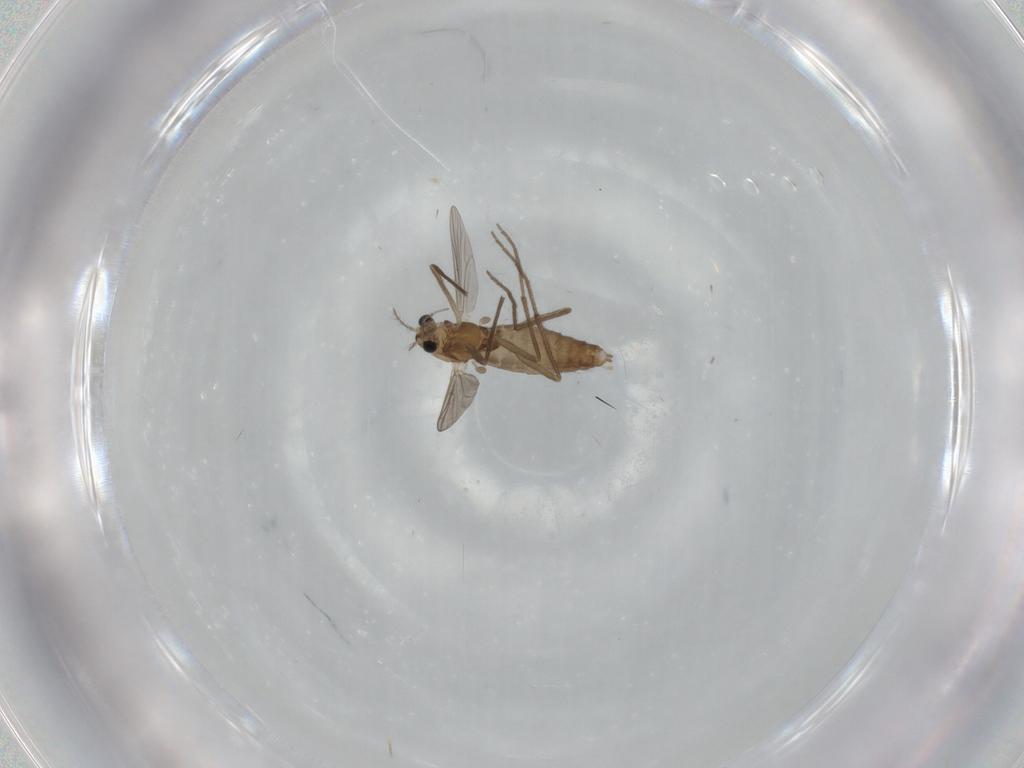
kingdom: Animalia
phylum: Arthropoda
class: Insecta
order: Diptera
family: Chironomidae
